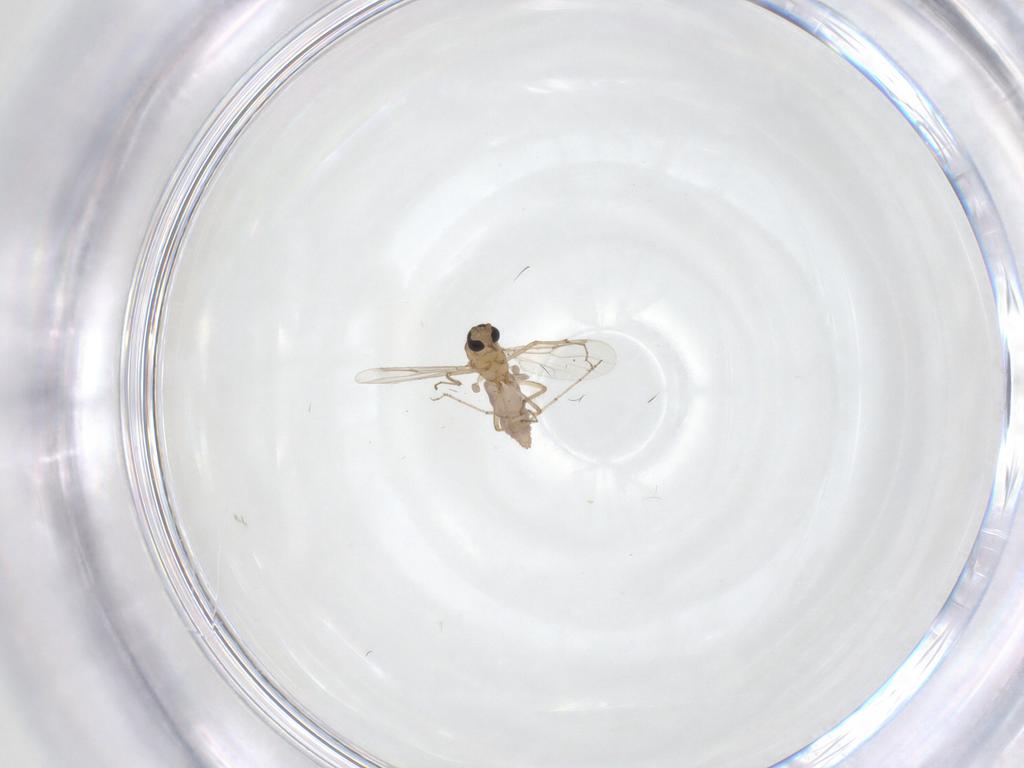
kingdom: Animalia
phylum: Arthropoda
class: Insecta
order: Diptera
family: Ceratopogonidae
